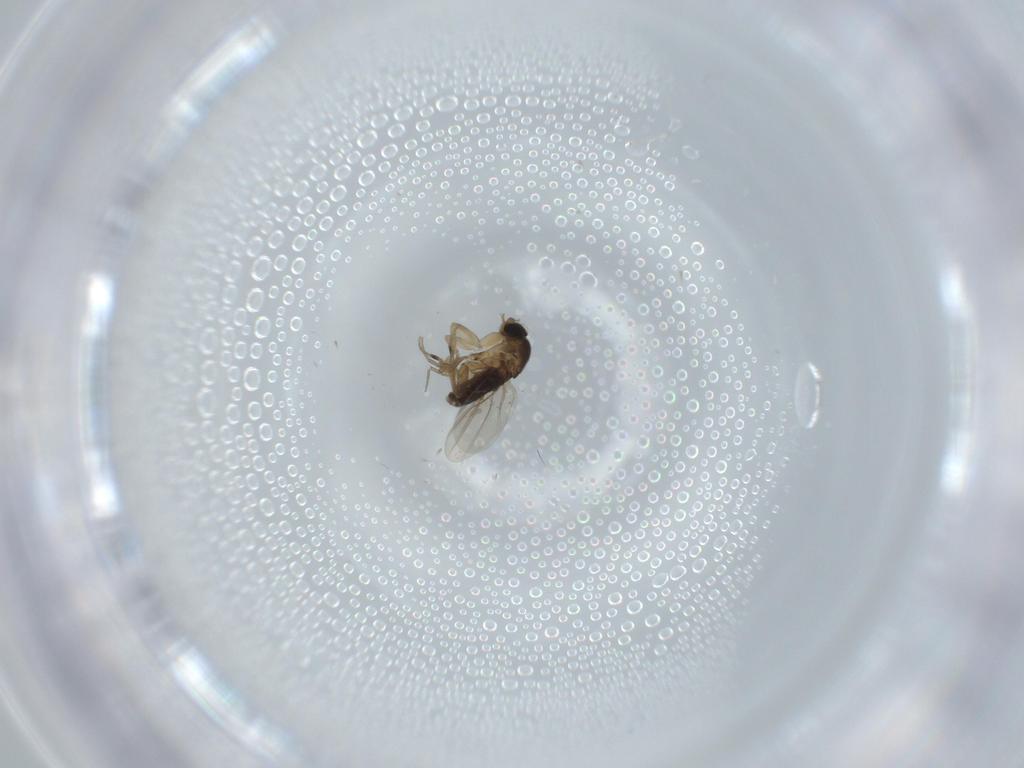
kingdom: Animalia
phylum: Arthropoda
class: Insecta
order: Diptera
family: Phoridae
